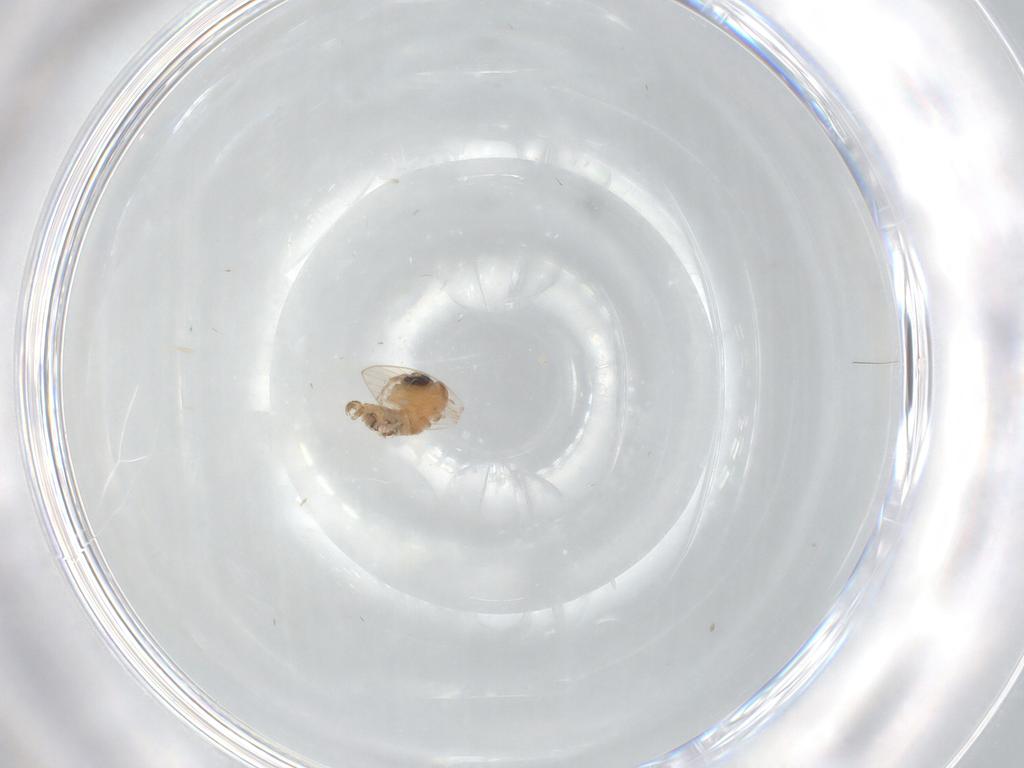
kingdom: Animalia
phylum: Arthropoda
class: Insecta
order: Diptera
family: Psychodidae
